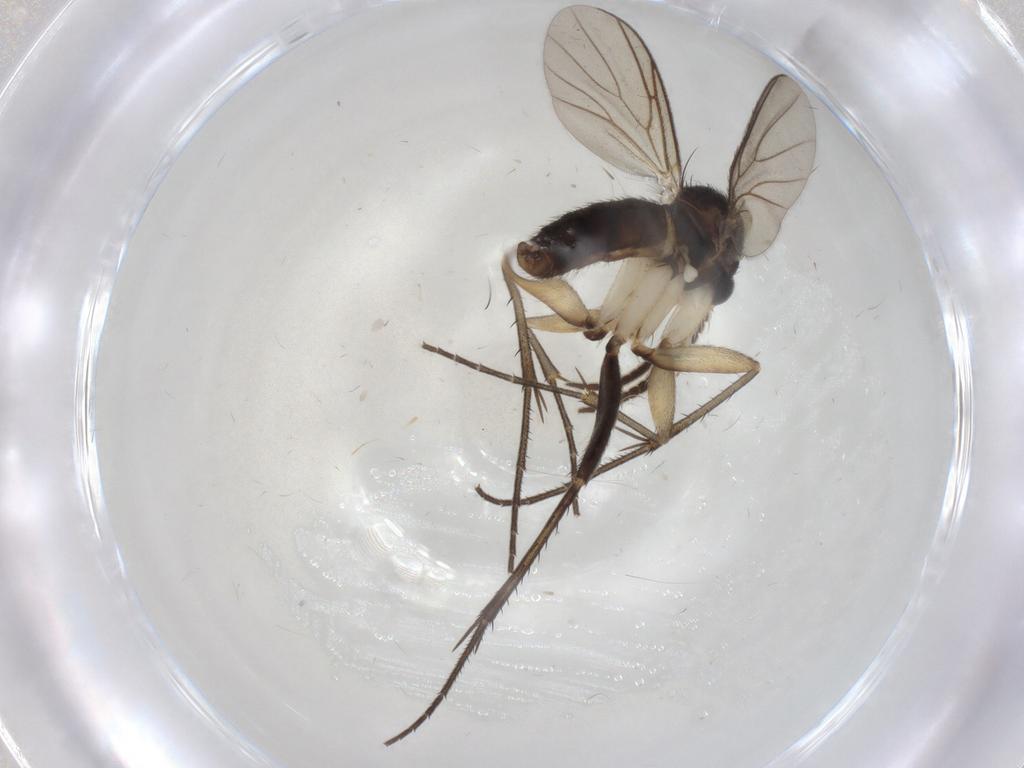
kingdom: Animalia
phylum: Arthropoda
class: Insecta
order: Diptera
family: Mycetophilidae
